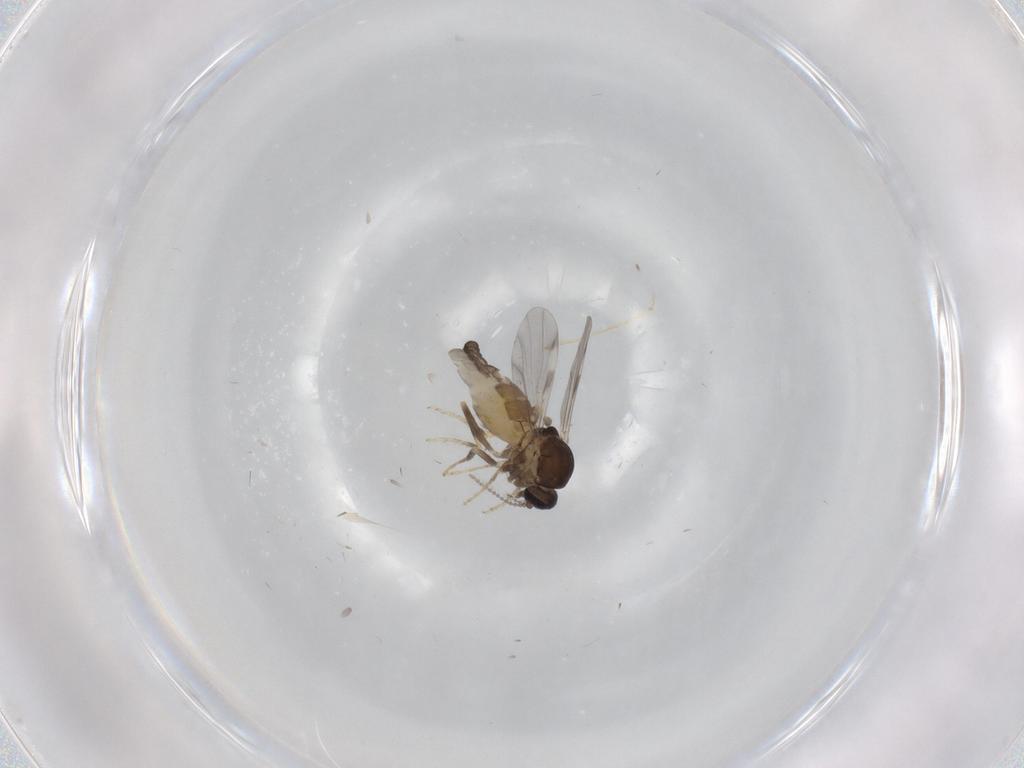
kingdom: Animalia
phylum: Arthropoda
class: Insecta
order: Diptera
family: Ceratopogonidae
